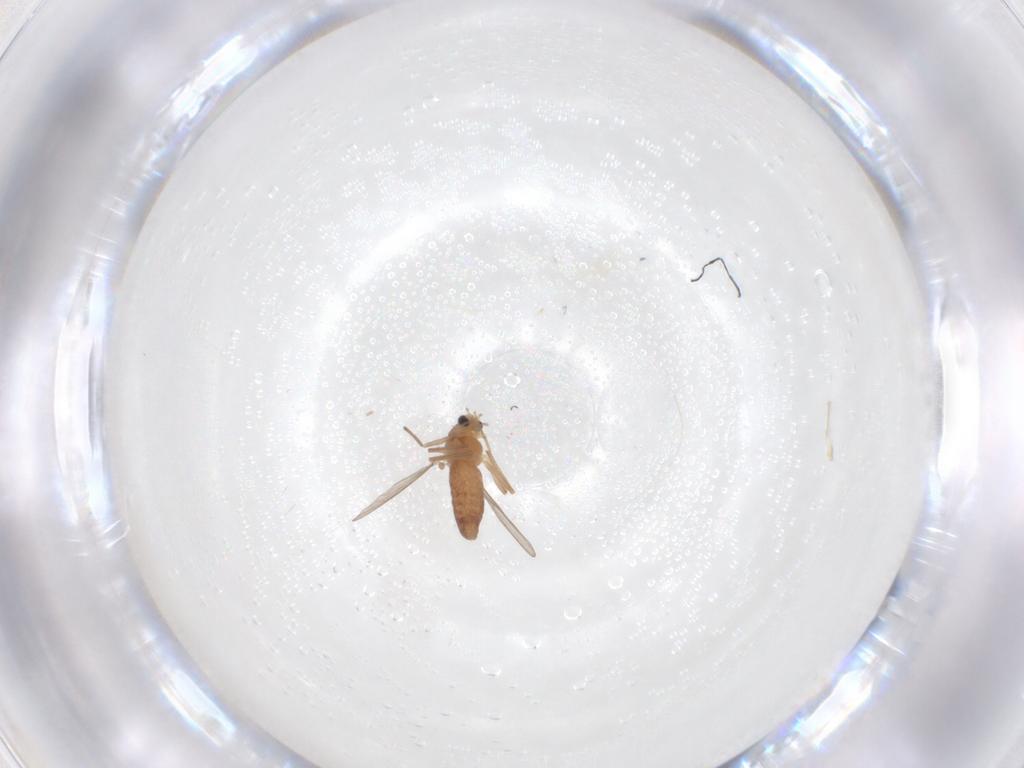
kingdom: Animalia
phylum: Arthropoda
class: Insecta
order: Diptera
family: Chironomidae
